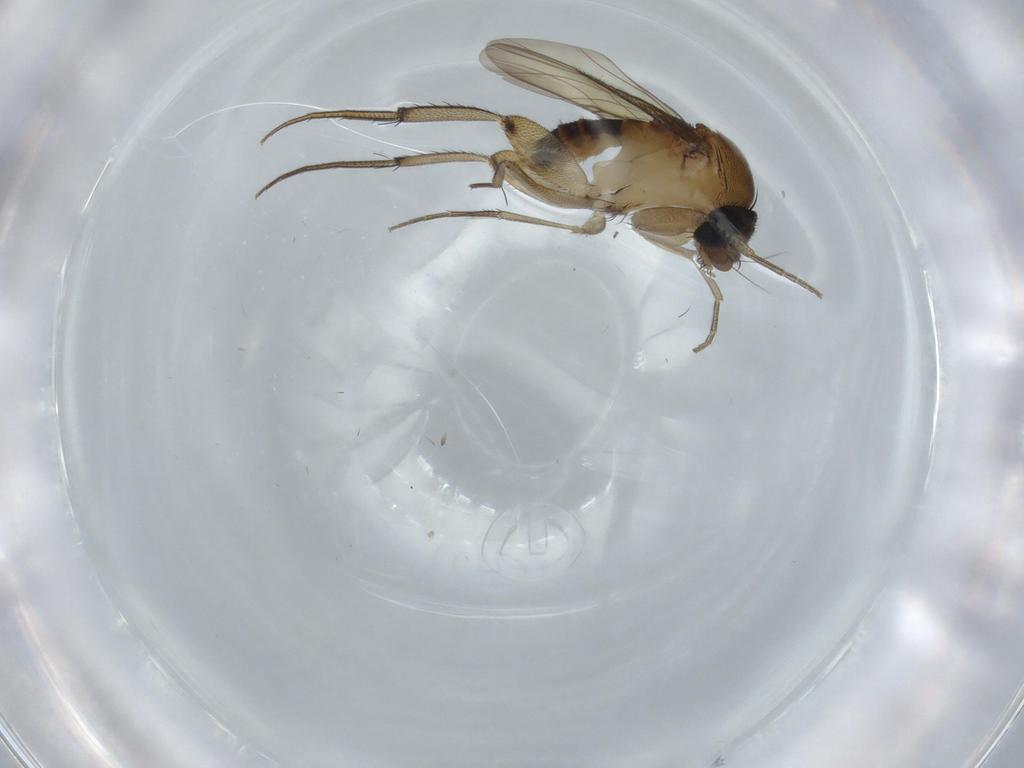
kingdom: Animalia
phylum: Arthropoda
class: Insecta
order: Diptera
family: Phoridae
